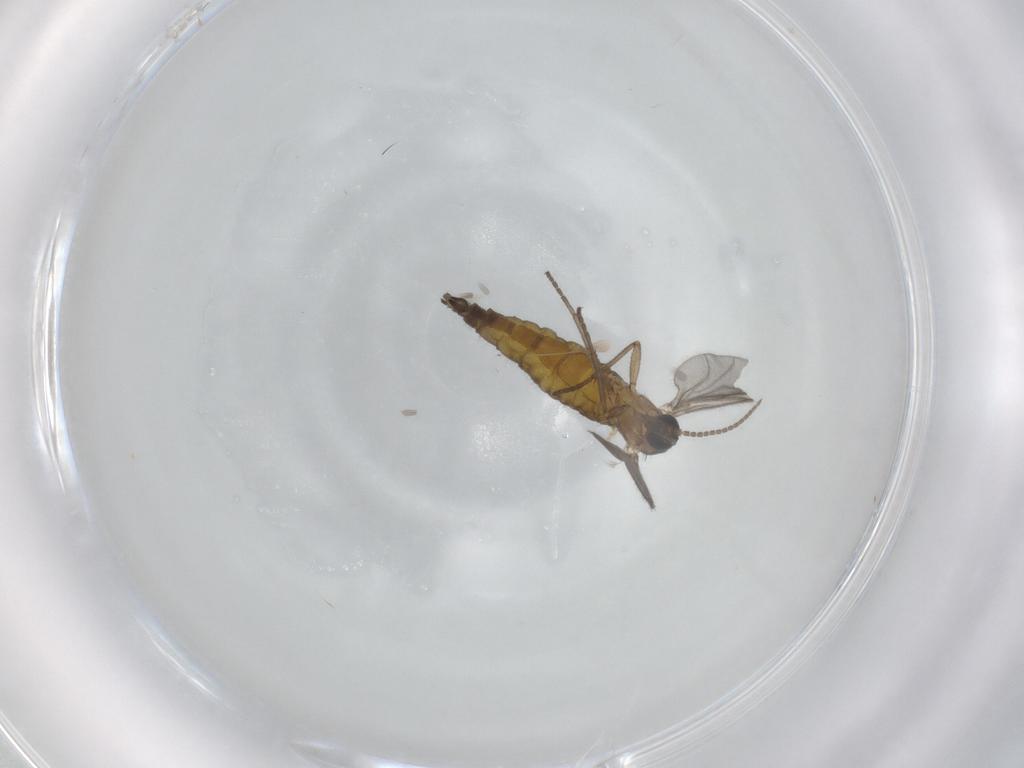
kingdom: Animalia
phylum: Arthropoda
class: Insecta
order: Diptera
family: Sciaridae
